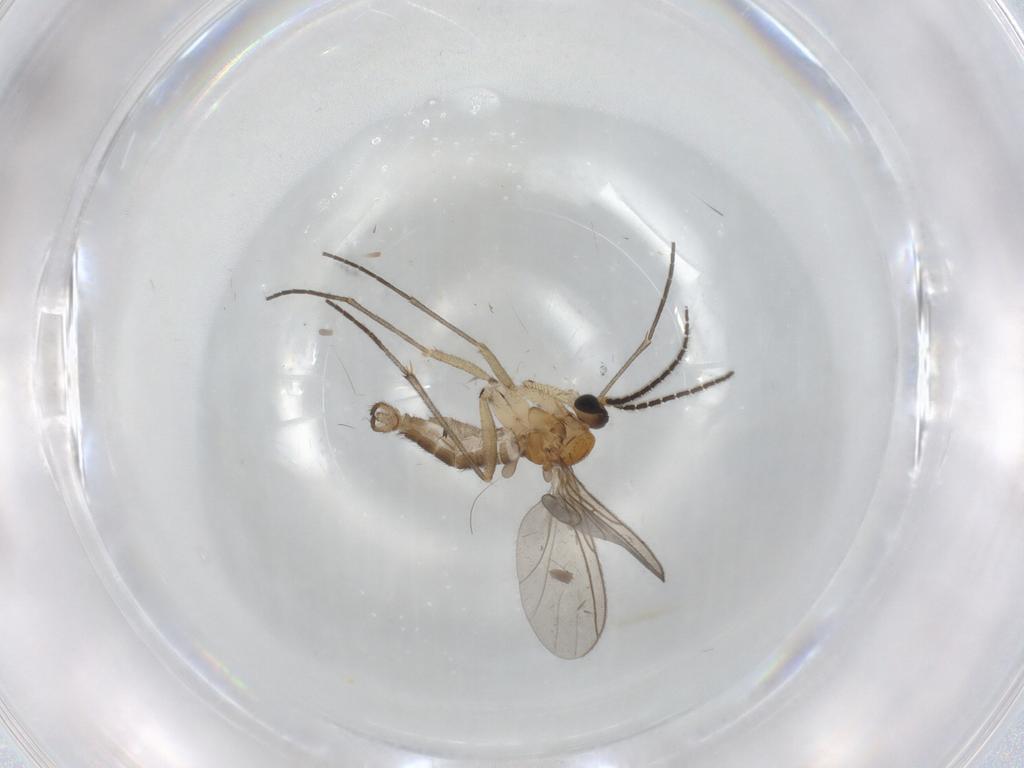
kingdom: Animalia
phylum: Arthropoda
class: Insecta
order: Diptera
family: Sciaridae
